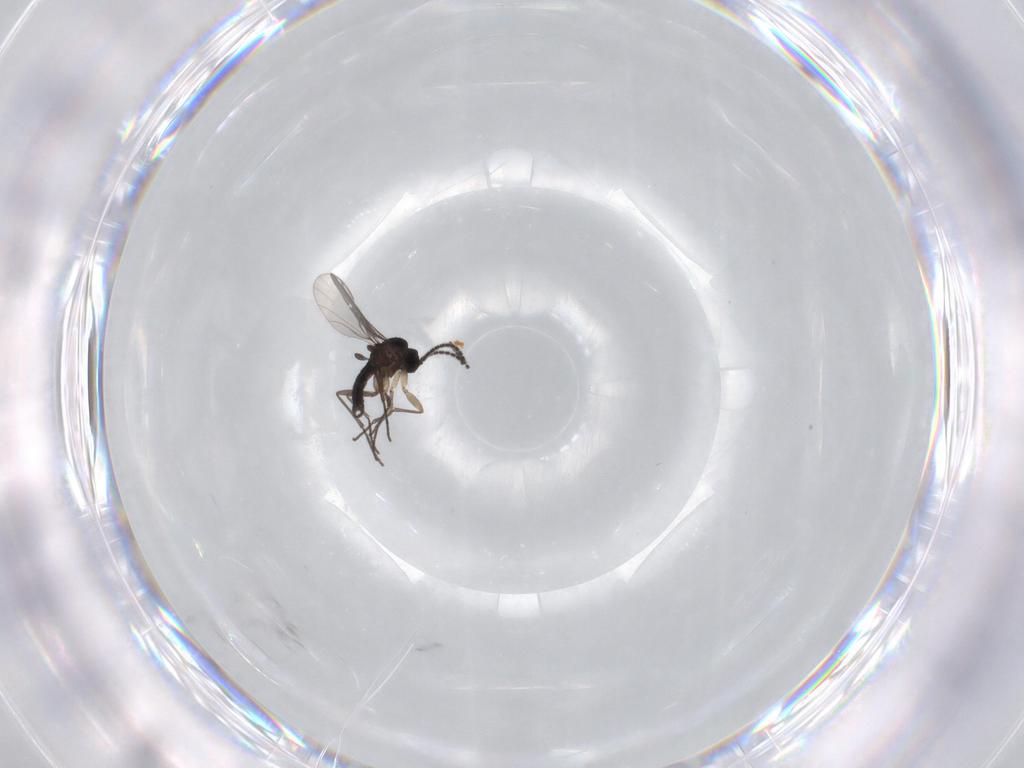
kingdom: Animalia
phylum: Arthropoda
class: Insecta
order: Diptera
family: Sciaridae
